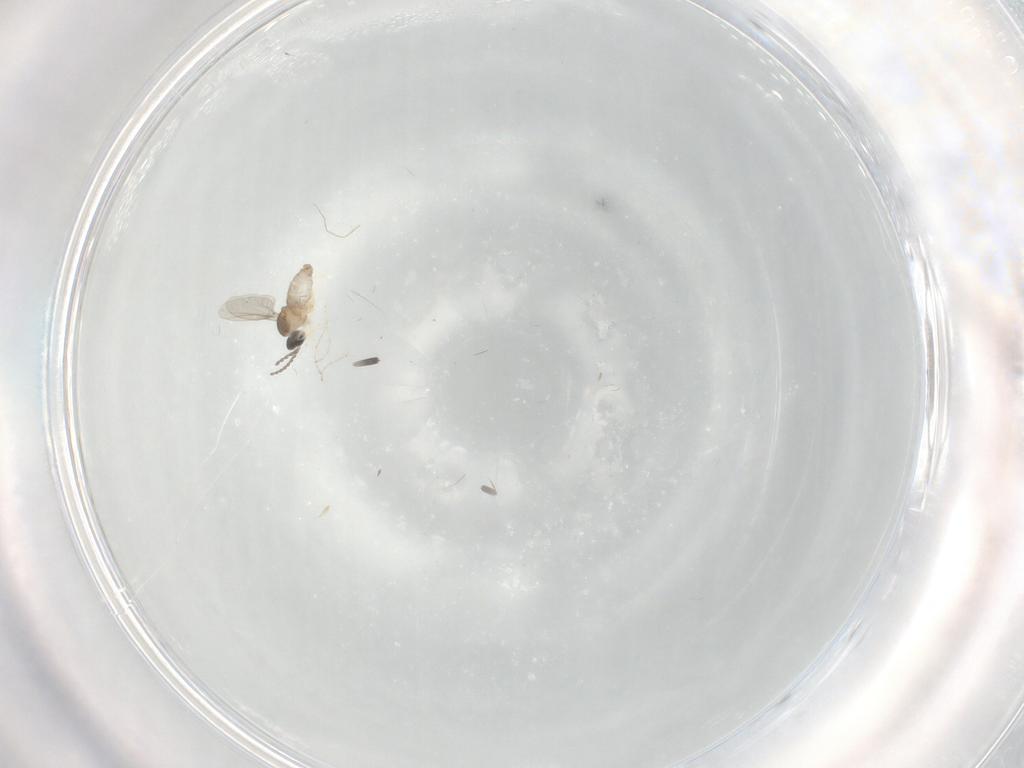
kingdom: Animalia
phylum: Arthropoda
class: Insecta
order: Diptera
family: Cecidomyiidae
